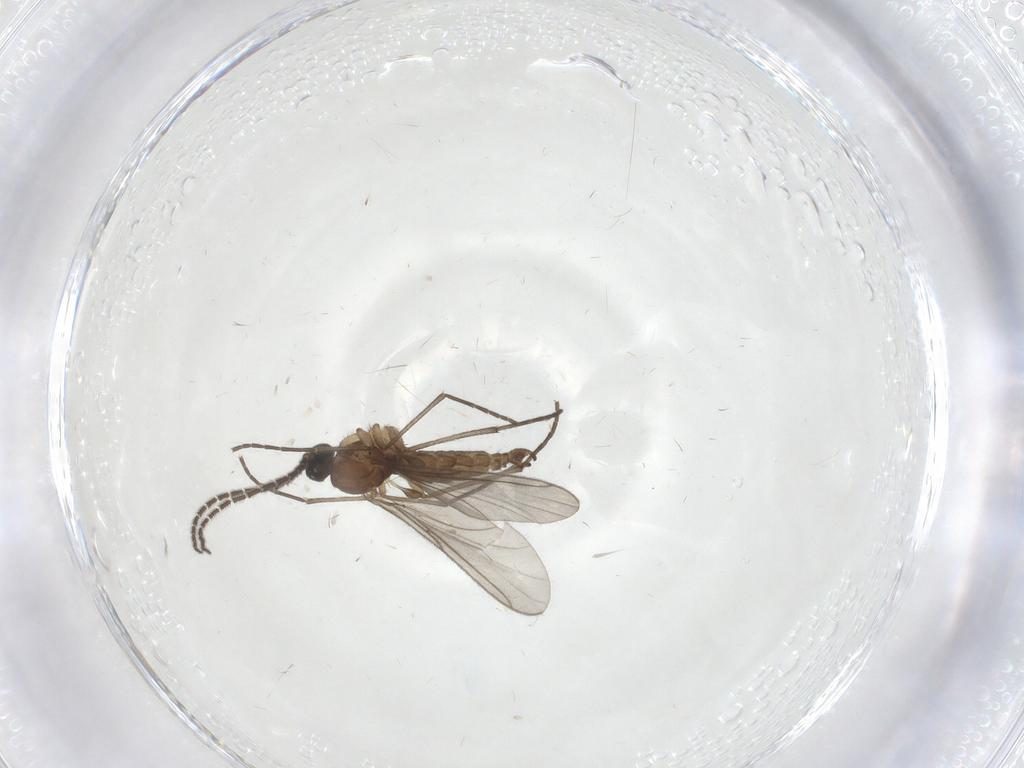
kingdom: Animalia
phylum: Arthropoda
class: Insecta
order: Diptera
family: Sciaridae
